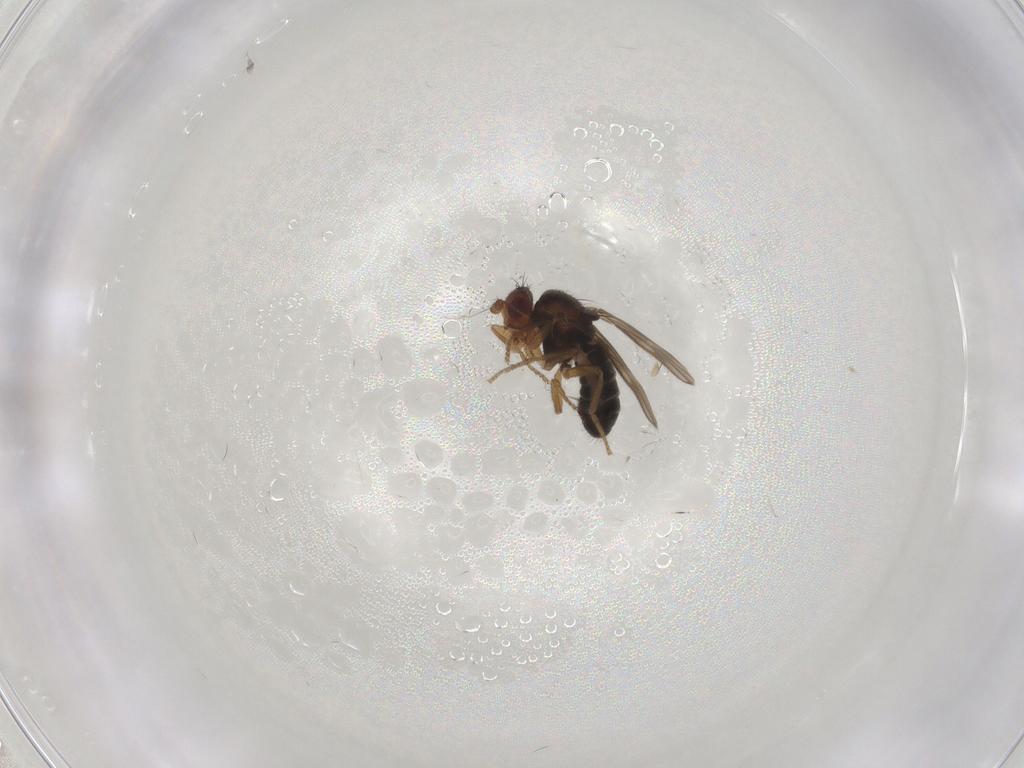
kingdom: Animalia
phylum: Arthropoda
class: Insecta
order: Diptera
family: Sphaeroceridae
